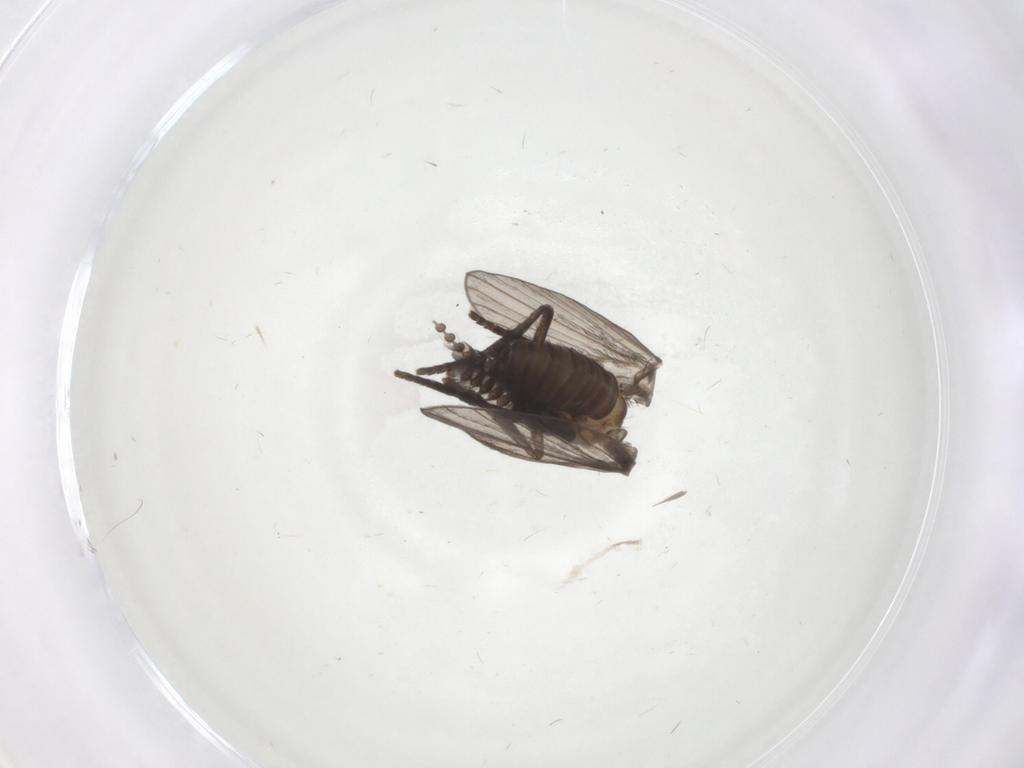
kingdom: Animalia
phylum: Arthropoda
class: Insecta
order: Diptera
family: Psychodidae
